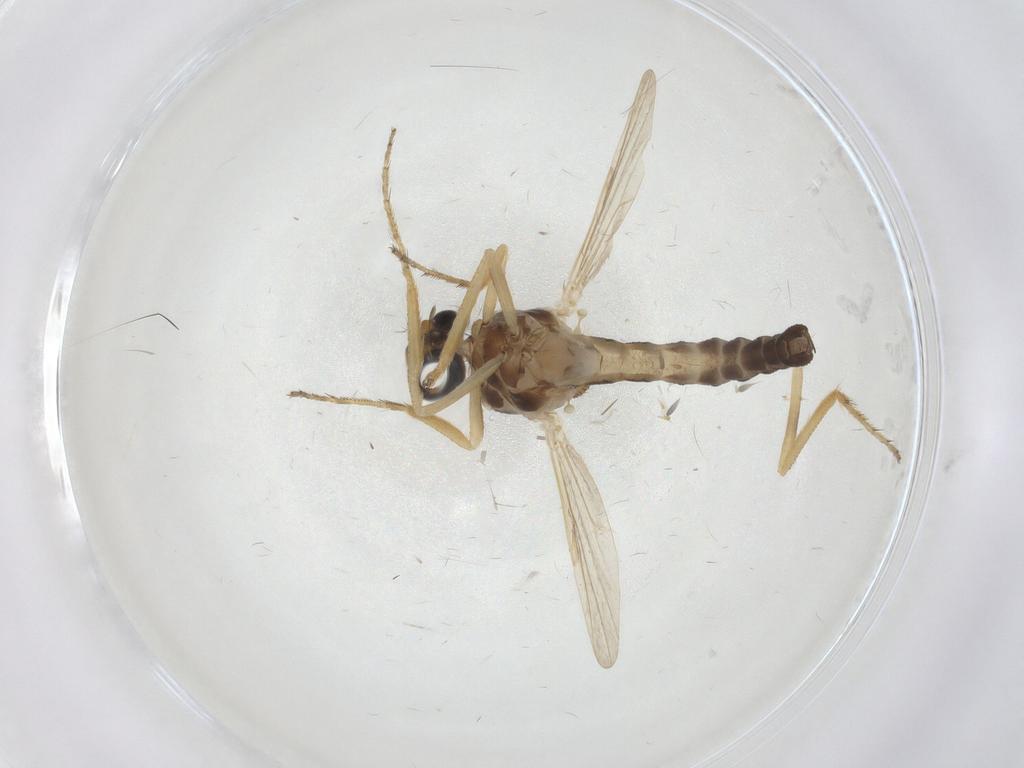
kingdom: Animalia
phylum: Arthropoda
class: Insecta
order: Diptera
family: Ceratopogonidae
